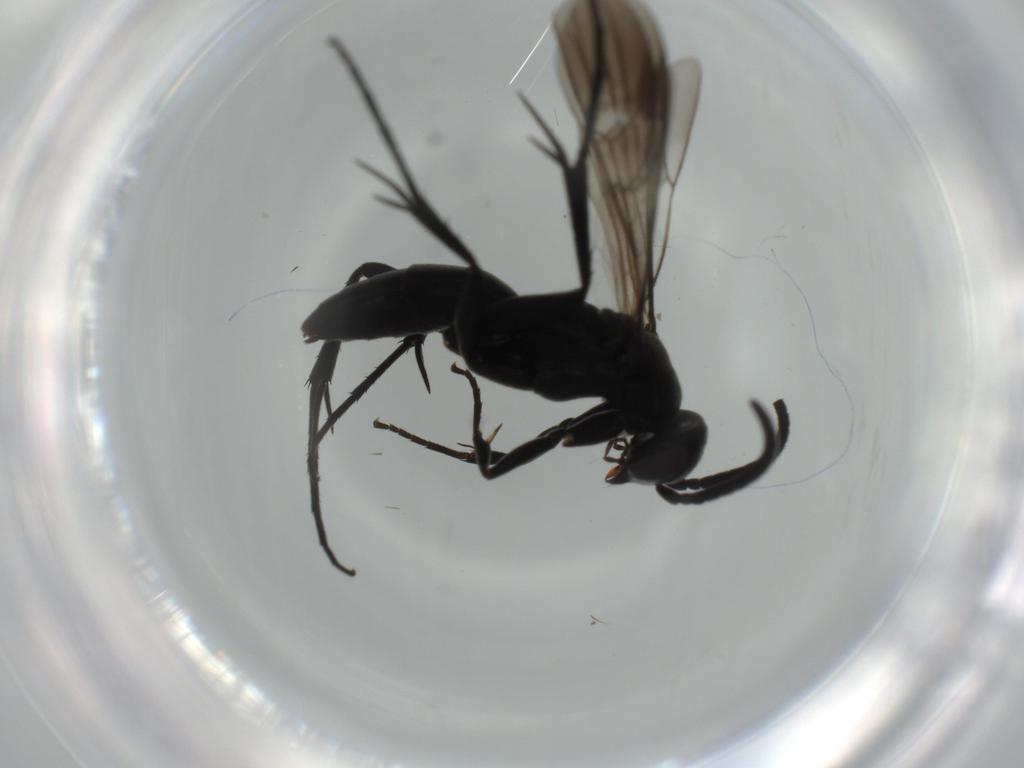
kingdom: Animalia
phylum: Arthropoda
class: Insecta
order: Hymenoptera
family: Pompilidae
